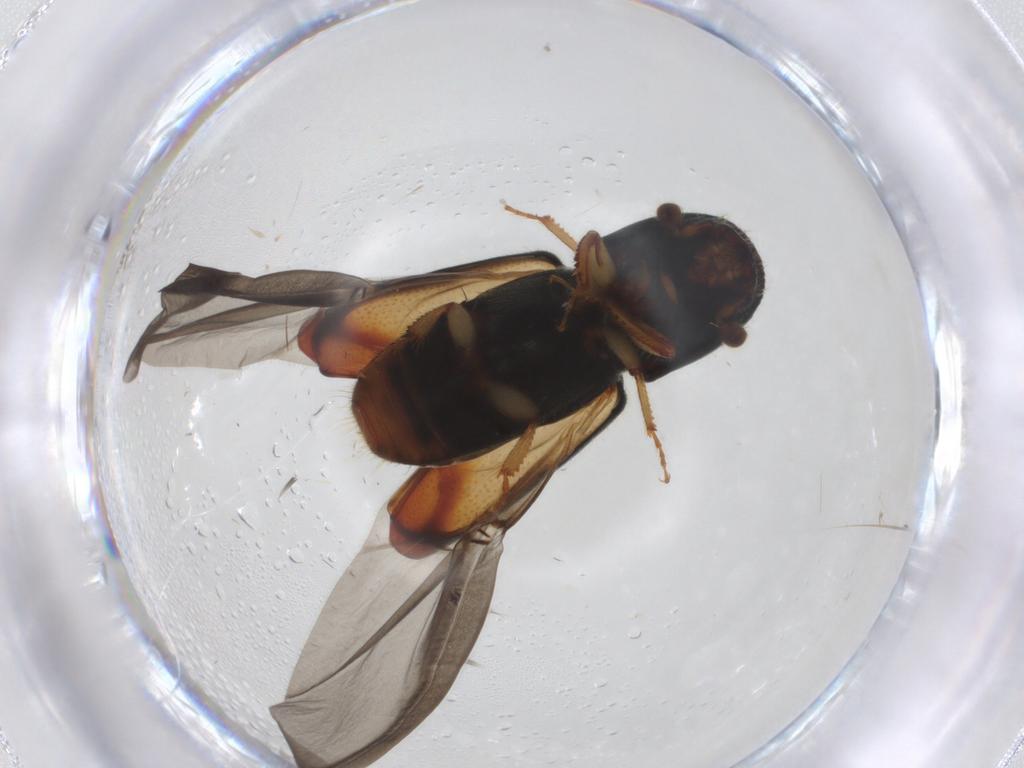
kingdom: Animalia
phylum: Arthropoda
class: Insecta
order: Coleoptera
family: Curculionidae
